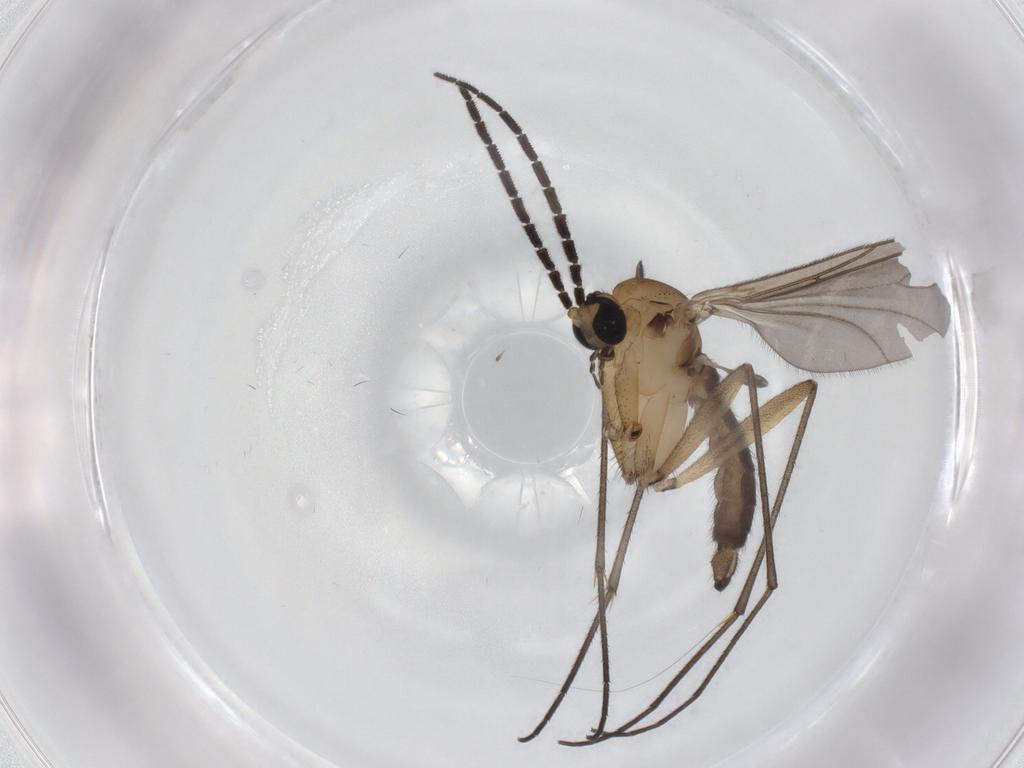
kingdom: Animalia
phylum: Arthropoda
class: Insecta
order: Diptera
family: Sciaridae
